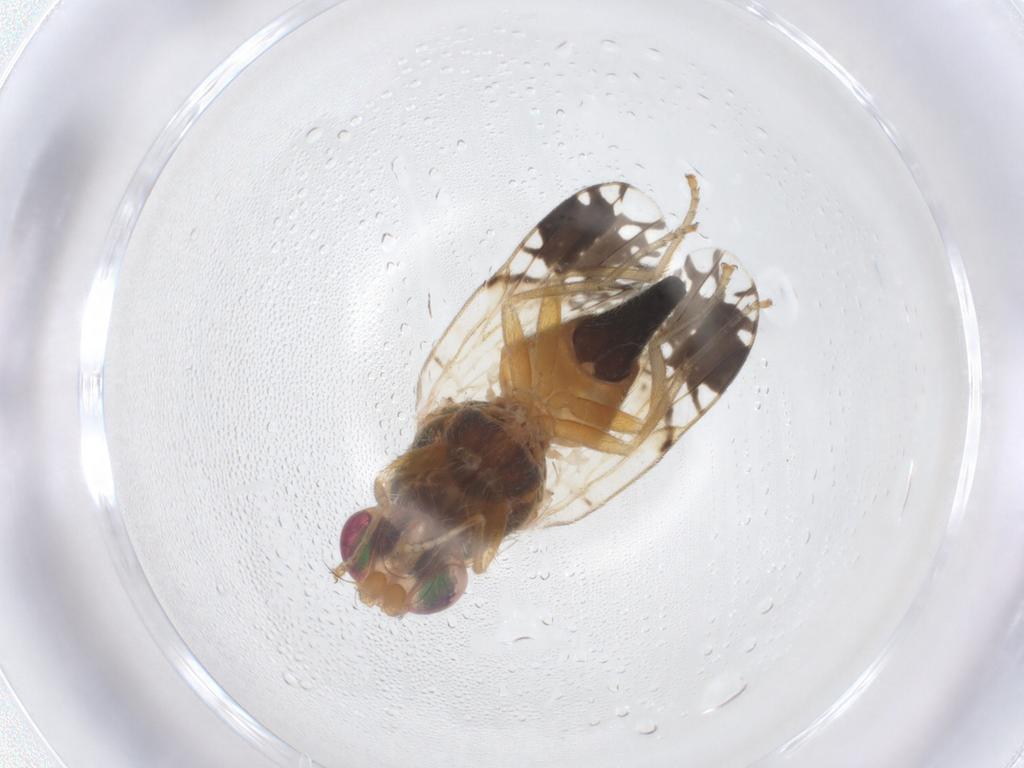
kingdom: Animalia
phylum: Arthropoda
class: Insecta
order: Diptera
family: Tephritidae
